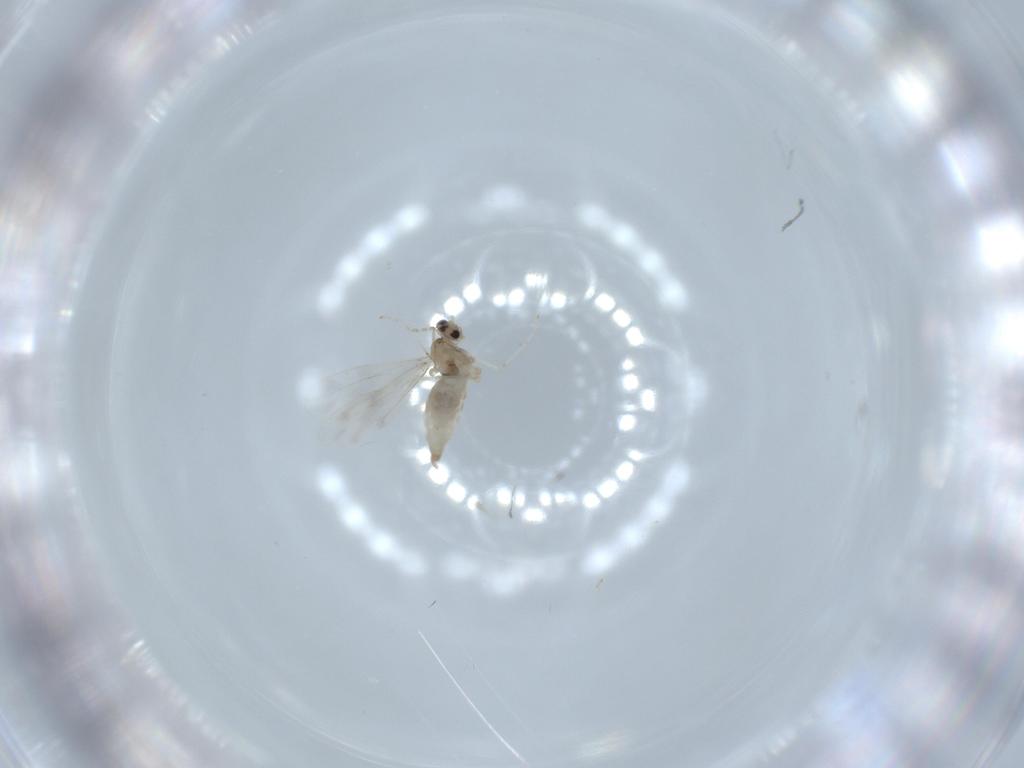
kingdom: Animalia
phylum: Arthropoda
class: Insecta
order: Diptera
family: Cecidomyiidae
